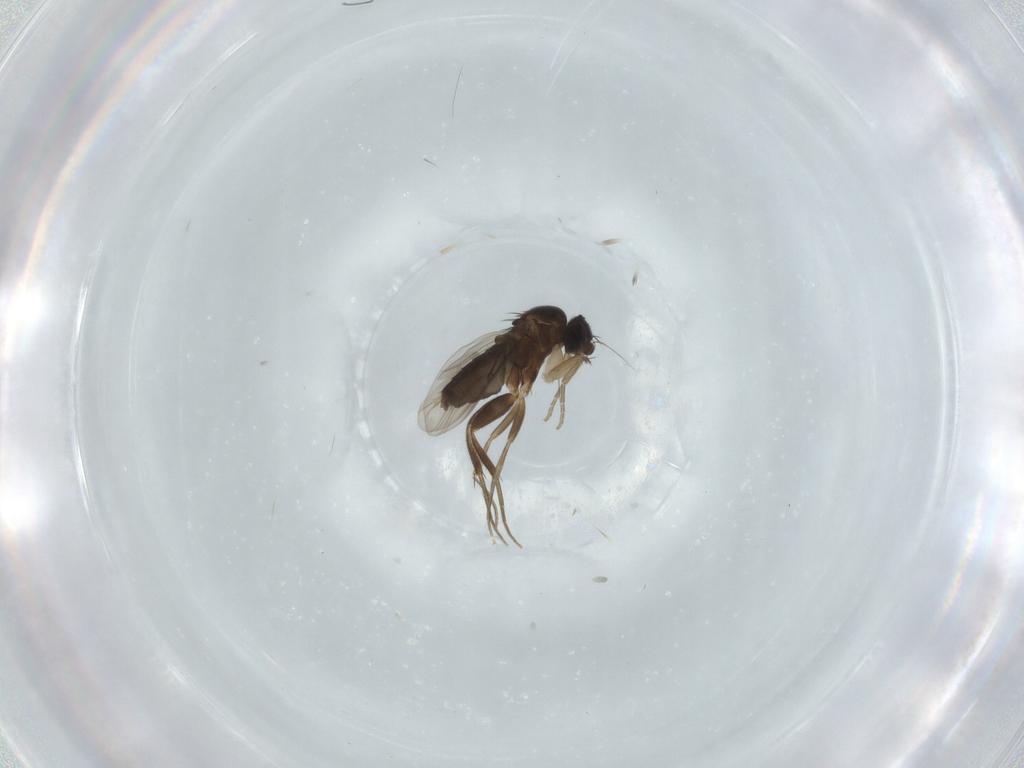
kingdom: Animalia
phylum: Arthropoda
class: Insecta
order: Diptera
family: Phoridae
